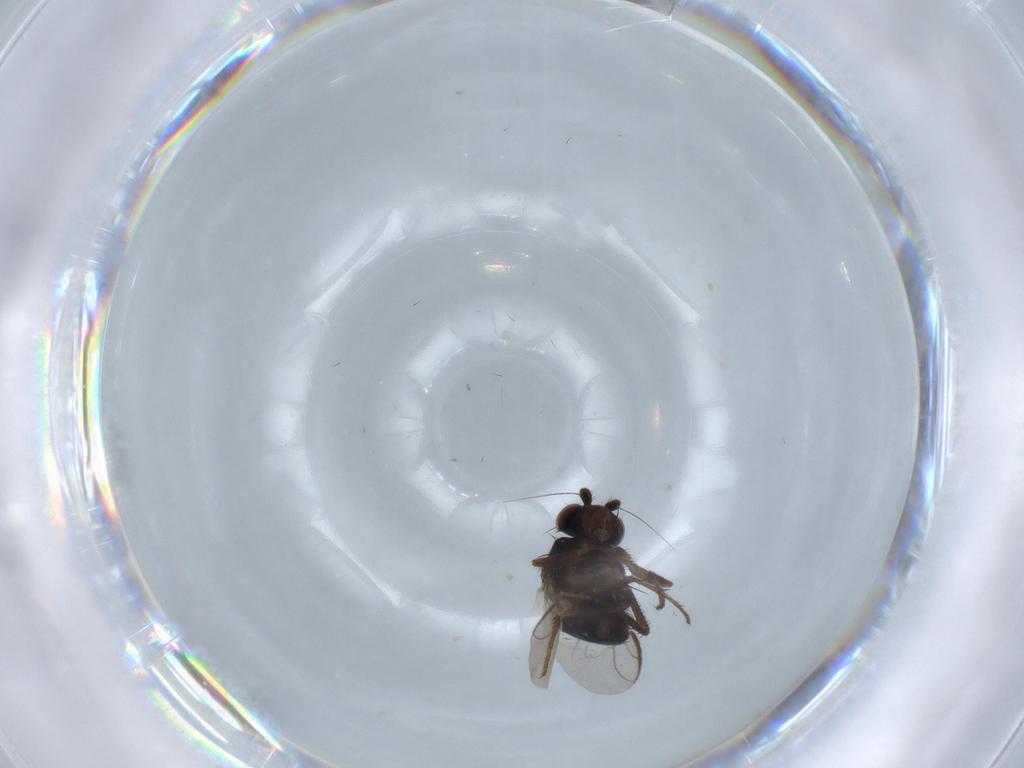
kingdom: Animalia
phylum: Arthropoda
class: Insecta
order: Diptera
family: Sphaeroceridae
